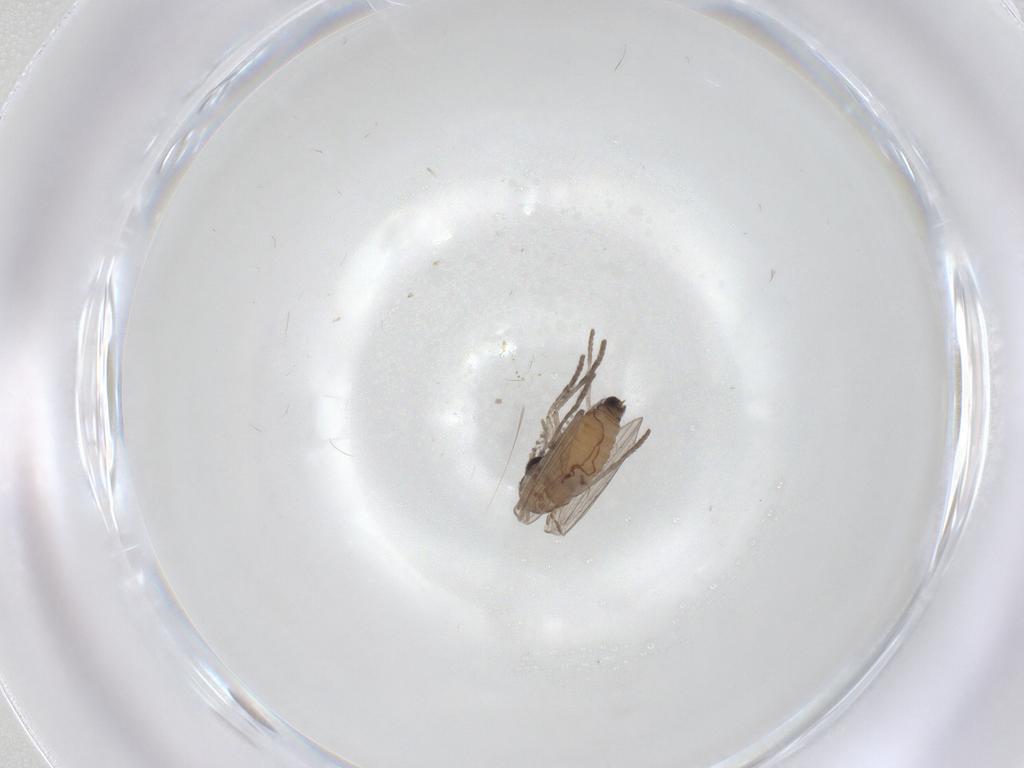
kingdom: Animalia
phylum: Arthropoda
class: Insecta
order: Diptera
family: Psychodidae
